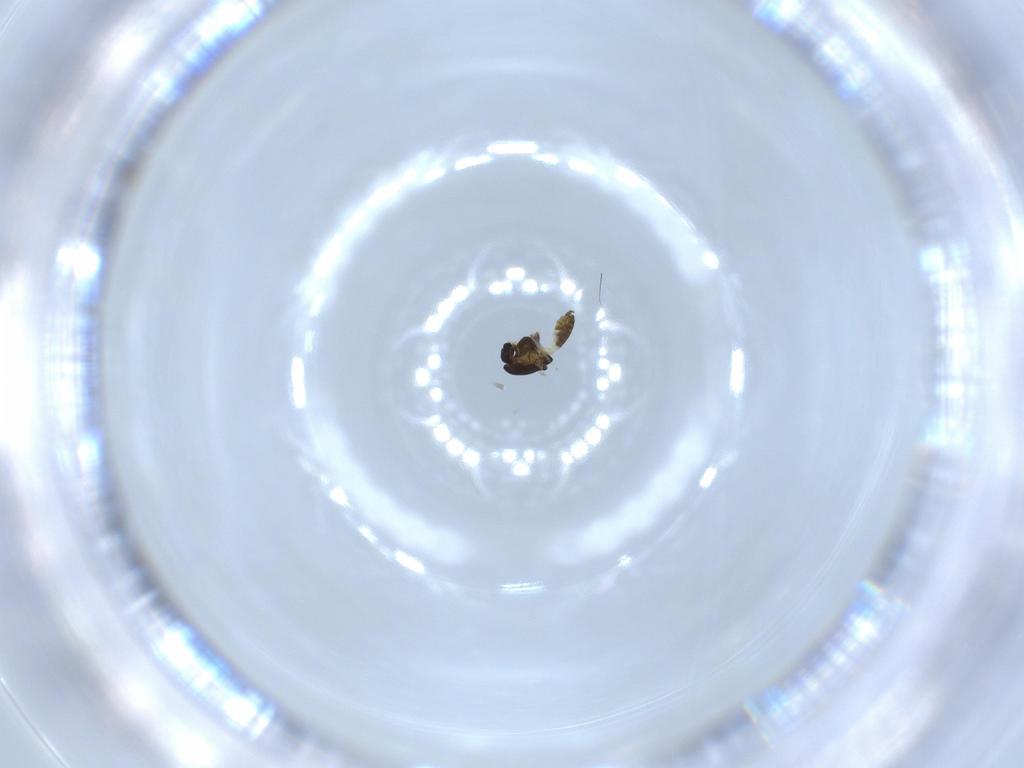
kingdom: Animalia
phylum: Arthropoda
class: Insecta
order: Diptera
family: Chironomidae
